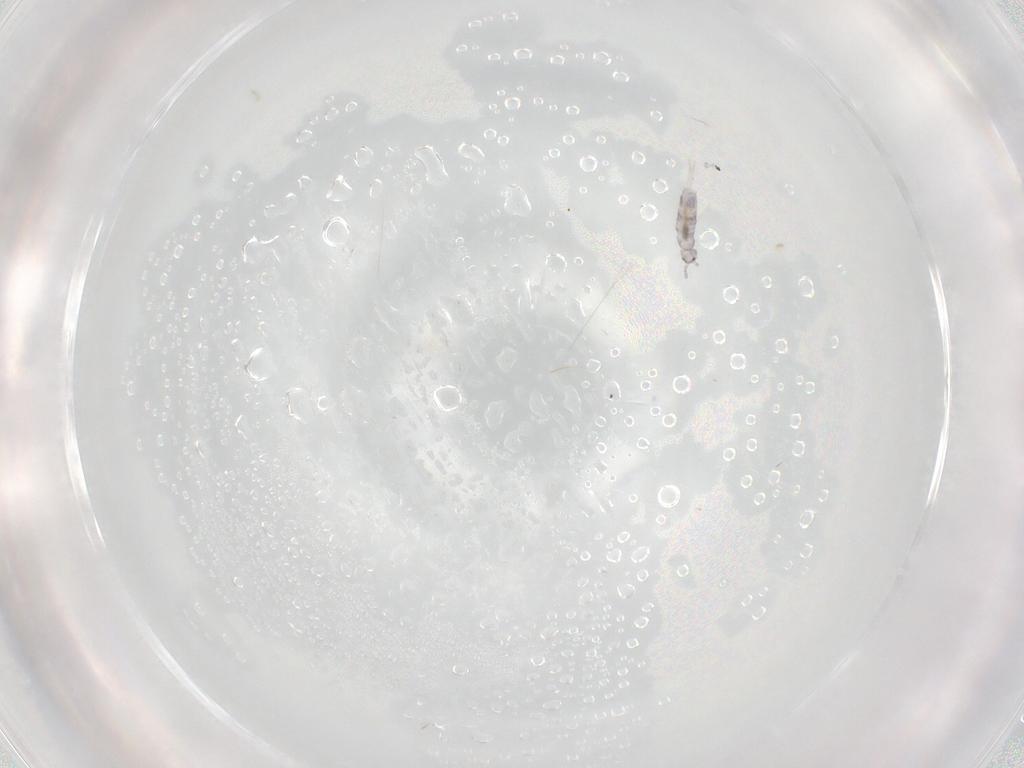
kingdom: Animalia
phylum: Arthropoda
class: Collembola
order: Entomobryomorpha
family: Entomobryidae
